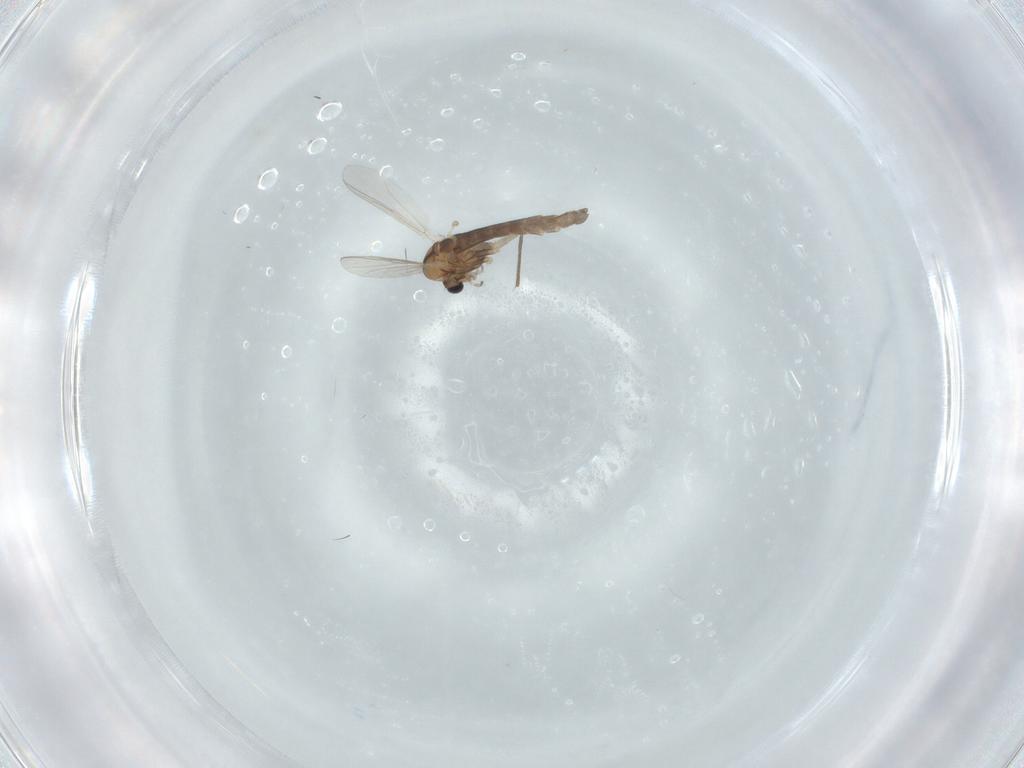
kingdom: Animalia
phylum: Arthropoda
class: Insecta
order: Diptera
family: Chironomidae
